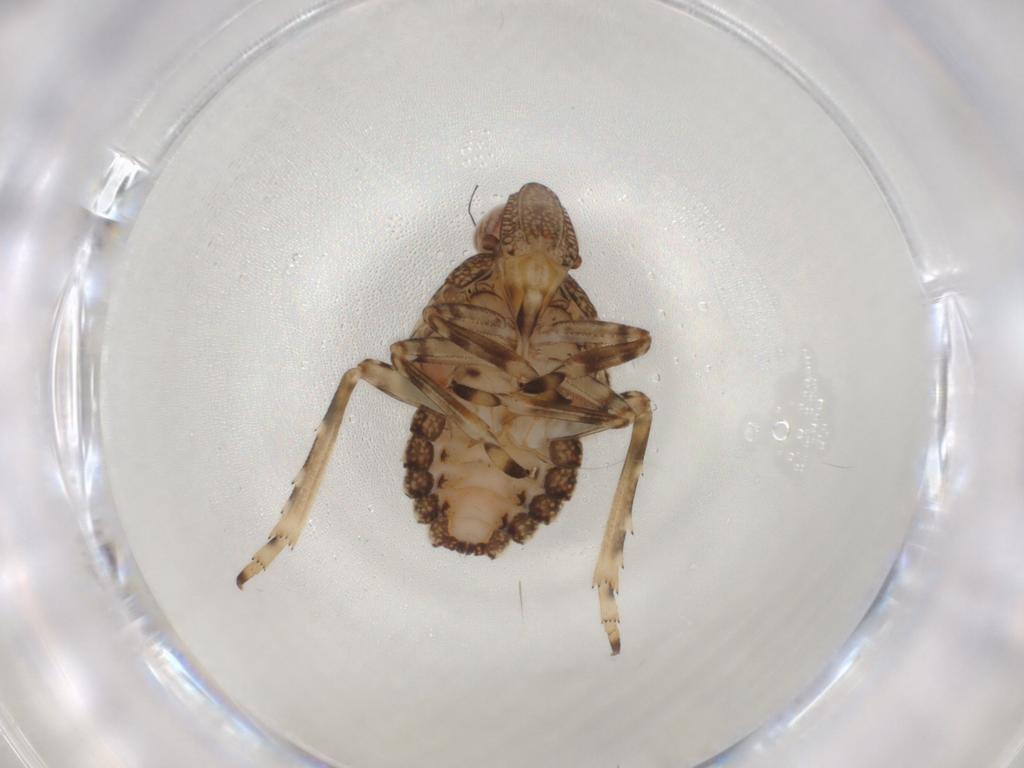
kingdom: Animalia
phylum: Arthropoda
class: Insecta
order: Hemiptera
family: Tropiduchidae
